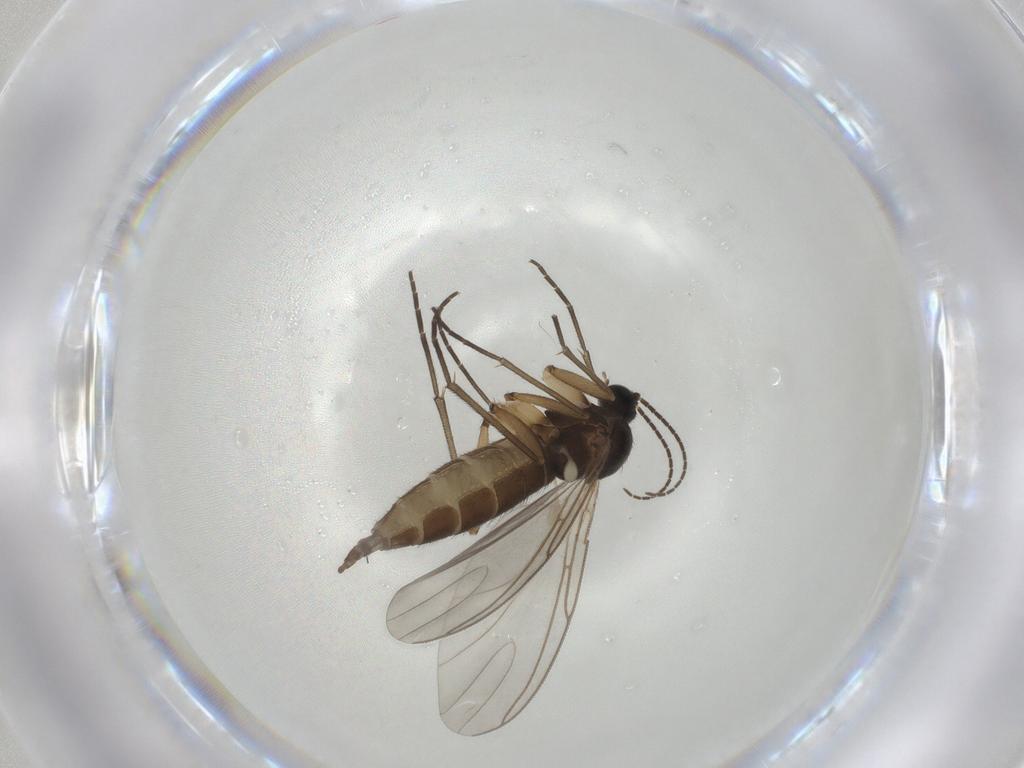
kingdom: Animalia
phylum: Arthropoda
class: Insecta
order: Diptera
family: Sciaridae
